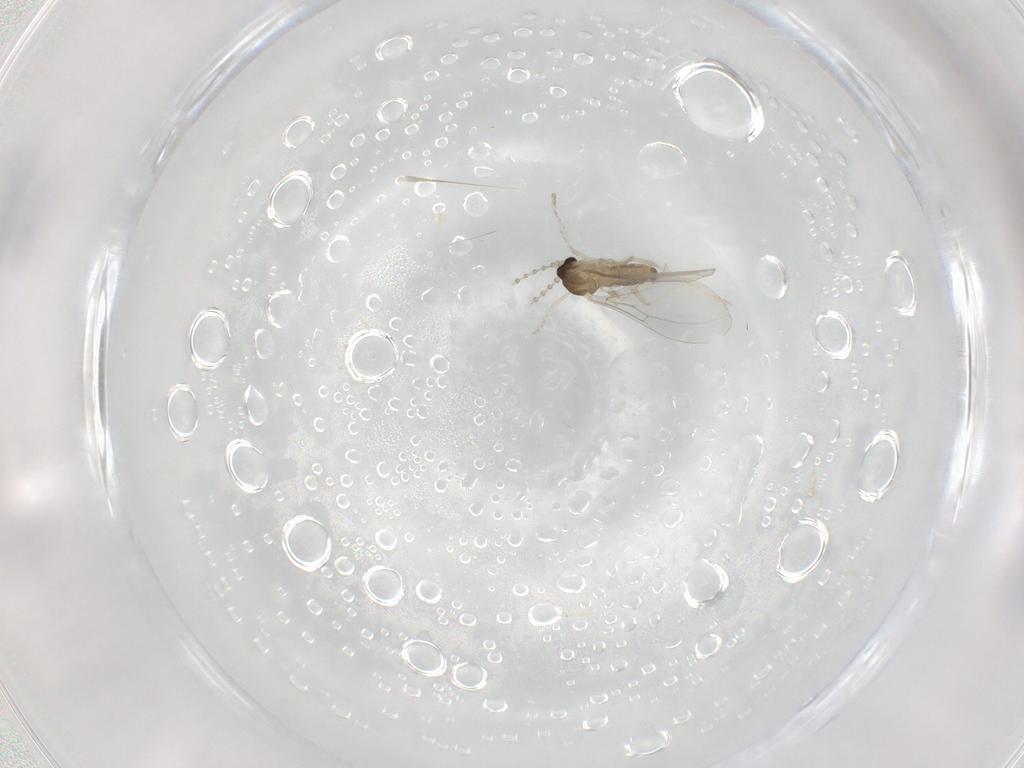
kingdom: Animalia
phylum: Arthropoda
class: Insecta
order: Diptera
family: Cecidomyiidae
